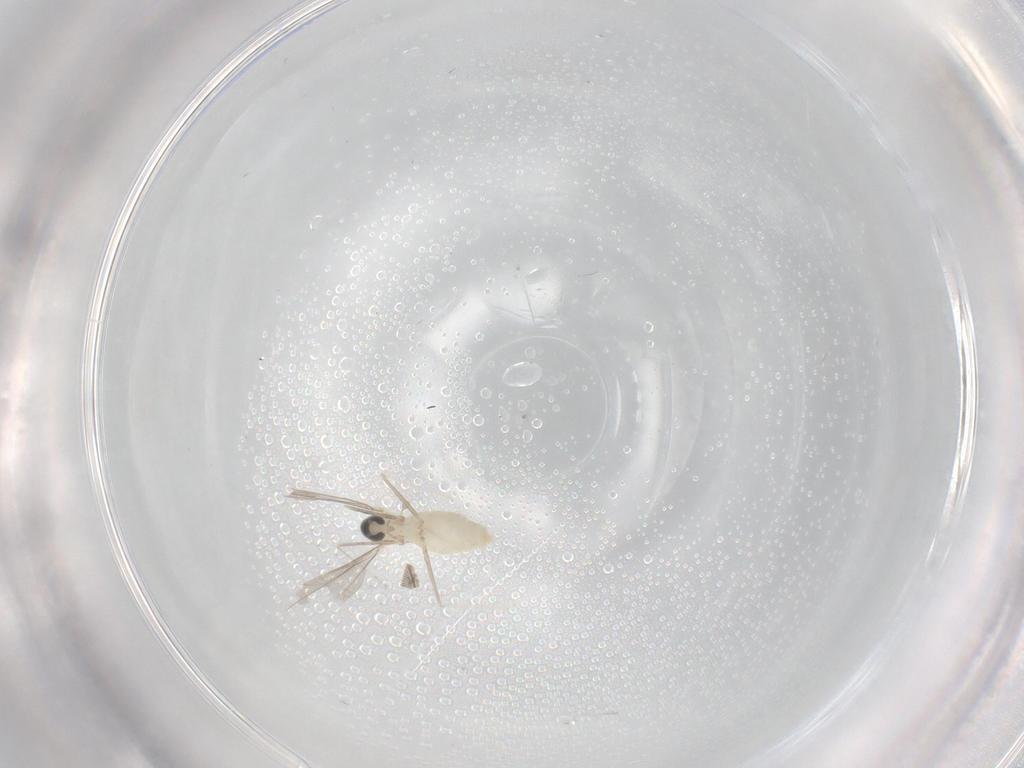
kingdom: Animalia
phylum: Arthropoda
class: Insecta
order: Diptera
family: Cecidomyiidae
